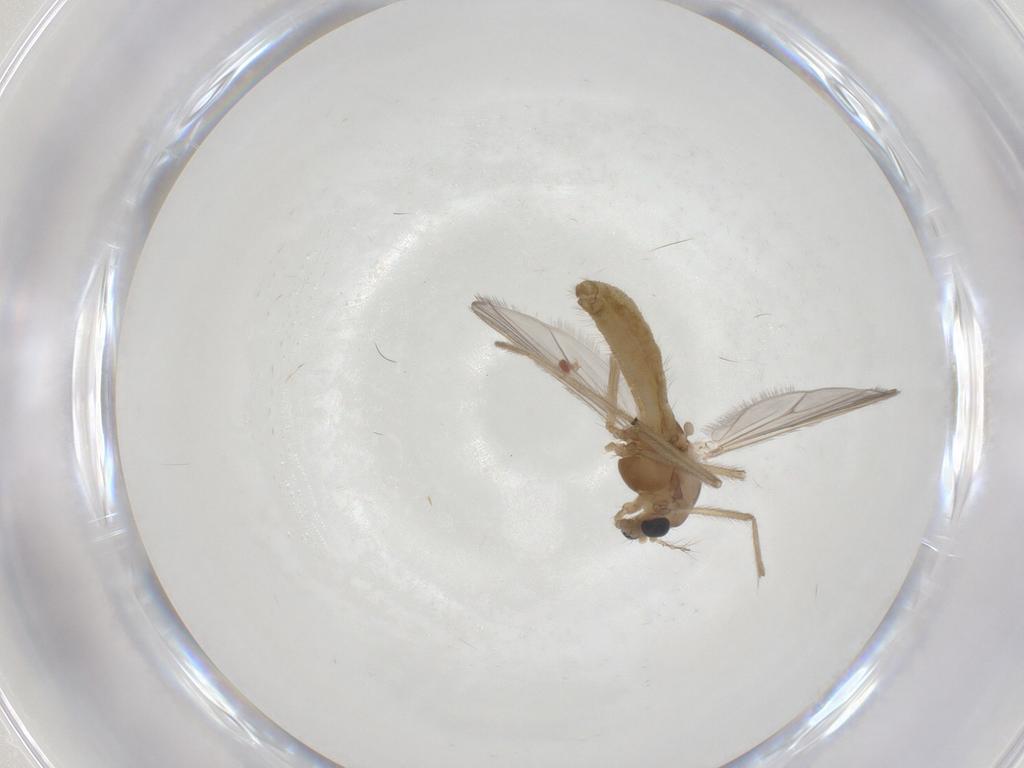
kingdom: Animalia
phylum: Arthropoda
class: Insecta
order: Diptera
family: Chironomidae
